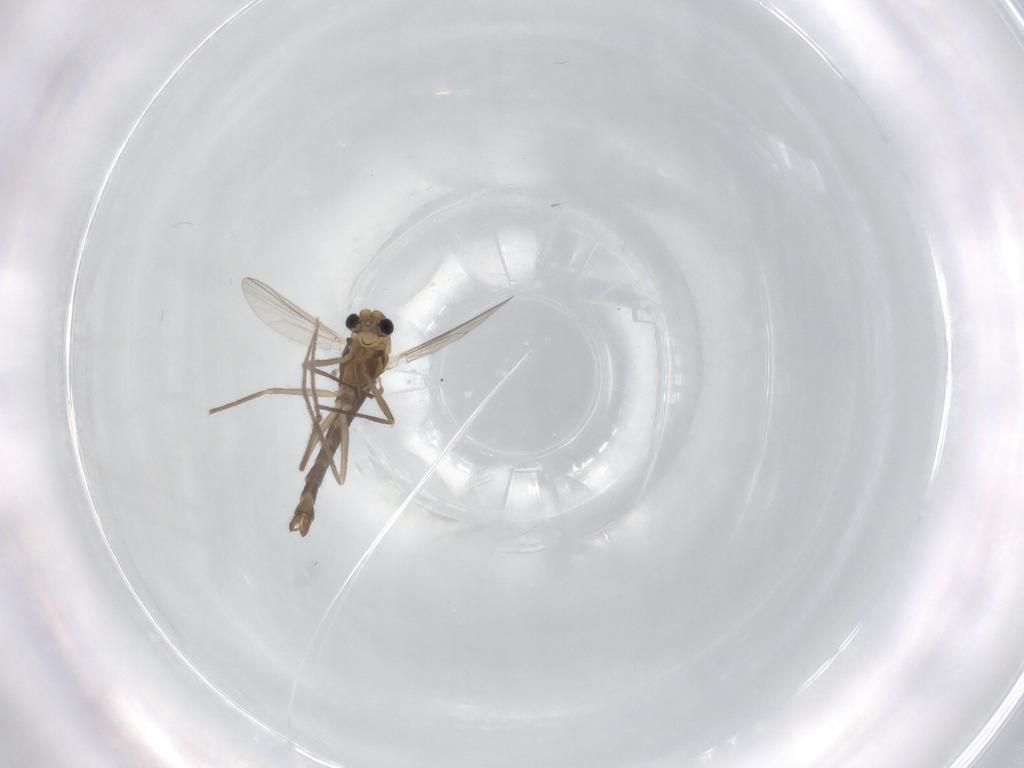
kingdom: Animalia
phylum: Arthropoda
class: Insecta
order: Diptera
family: Chironomidae
